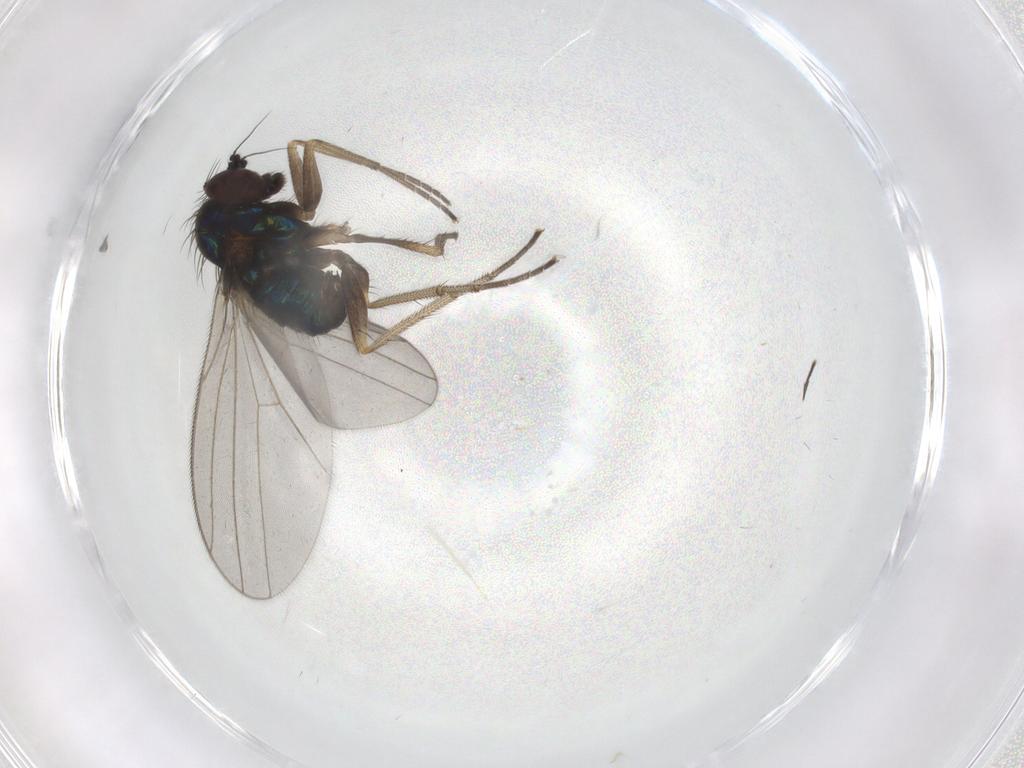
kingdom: Animalia
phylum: Arthropoda
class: Insecta
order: Diptera
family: Dolichopodidae
